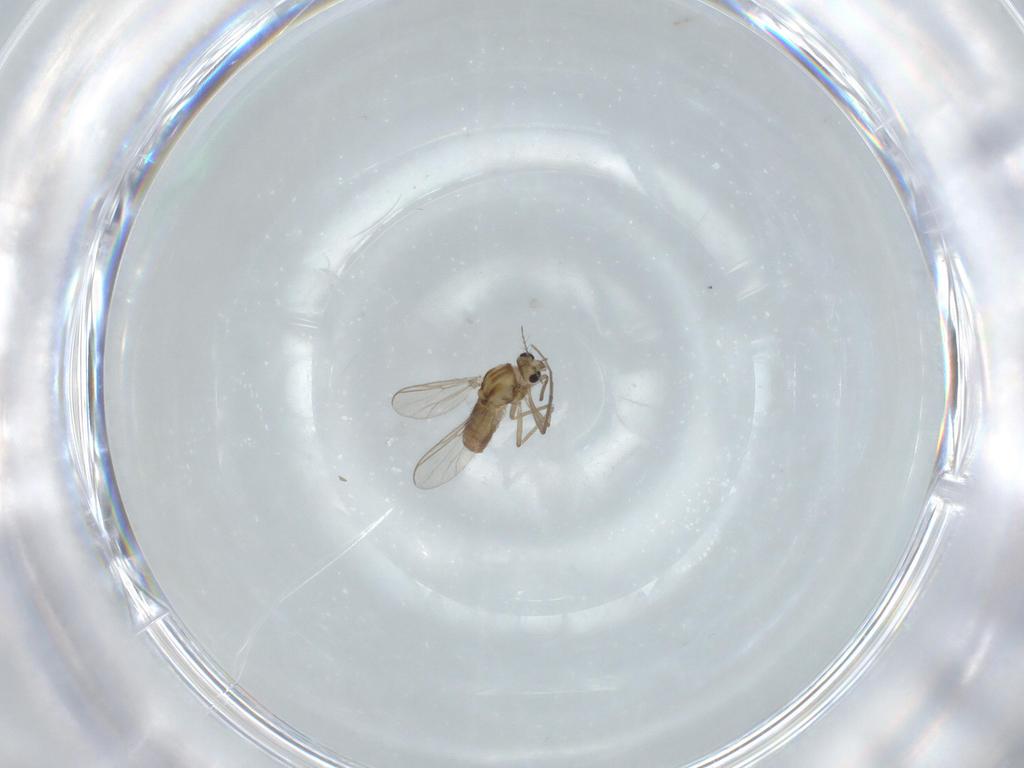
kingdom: Animalia
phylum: Arthropoda
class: Insecta
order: Diptera
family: Chironomidae
